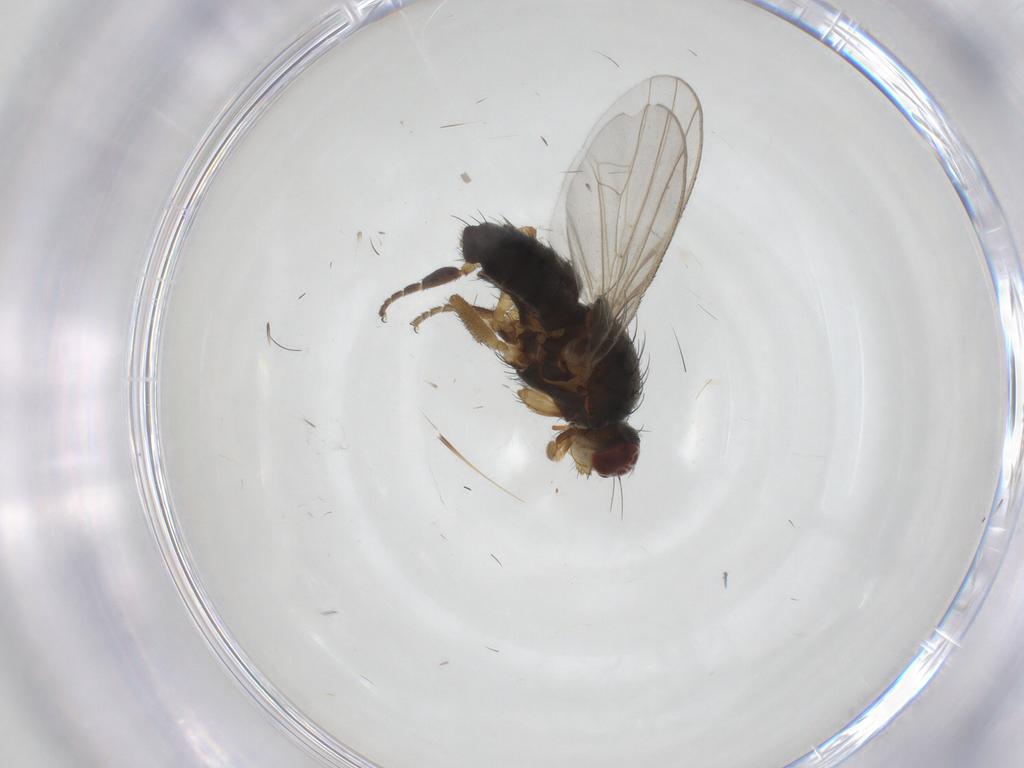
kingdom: Animalia
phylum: Arthropoda
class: Insecta
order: Diptera
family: Heleomyzidae
